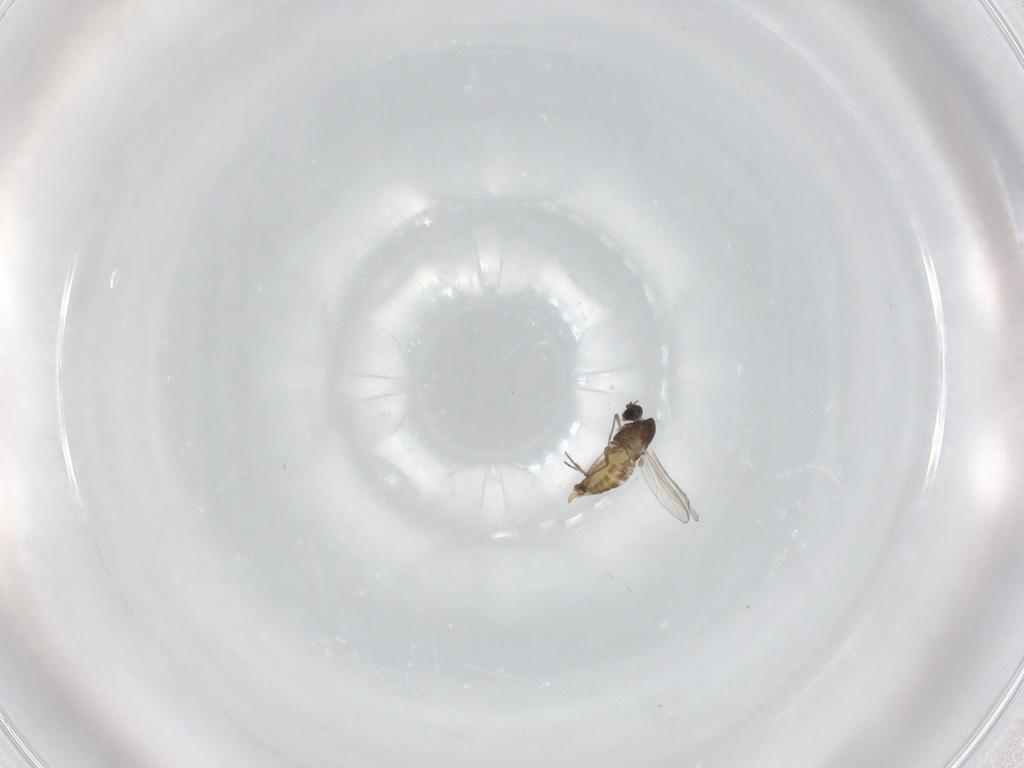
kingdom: Animalia
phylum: Arthropoda
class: Insecta
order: Diptera
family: Chironomidae
